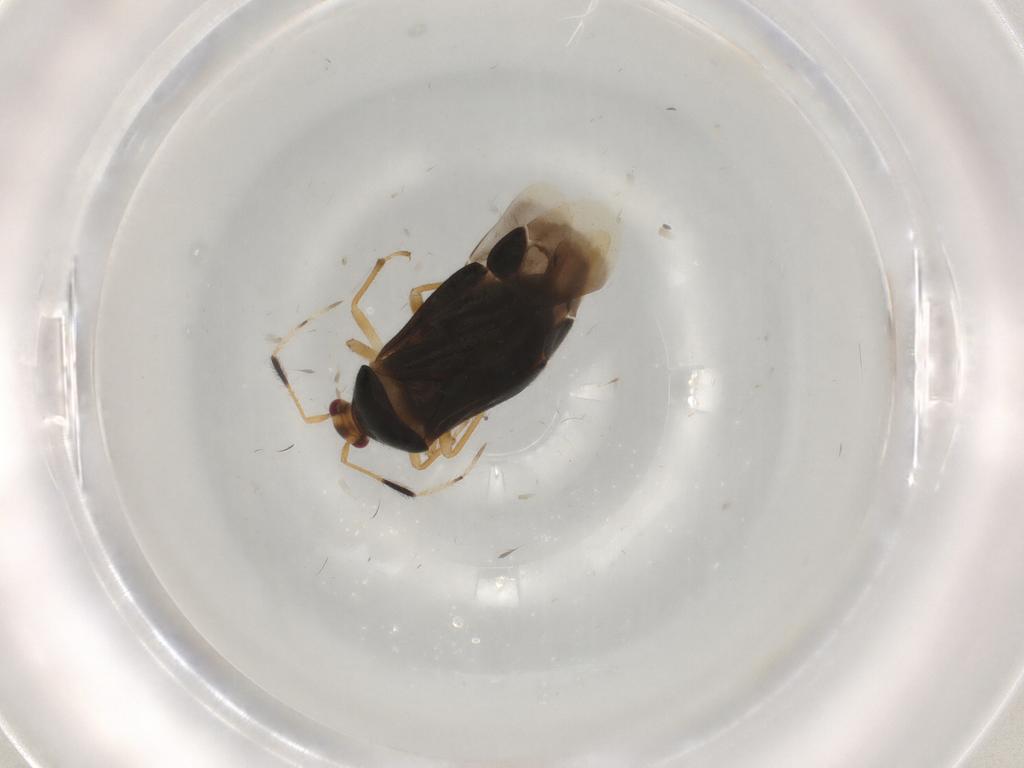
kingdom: Animalia
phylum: Arthropoda
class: Insecta
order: Hemiptera
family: Miridae
